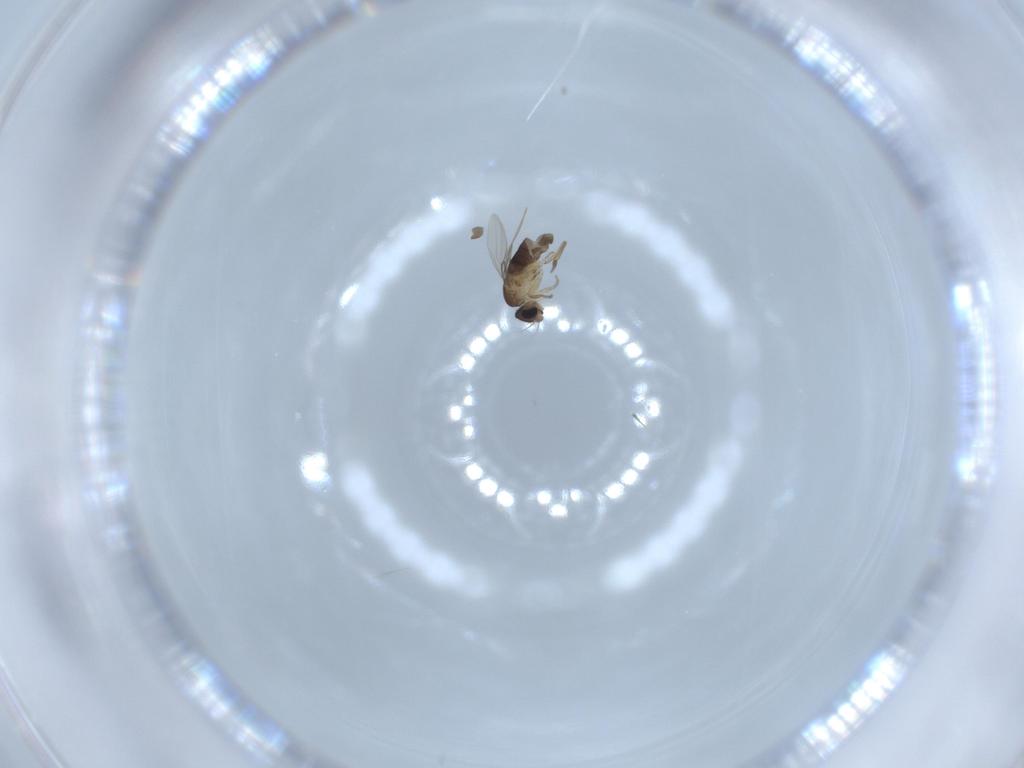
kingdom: Animalia
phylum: Arthropoda
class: Insecta
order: Diptera
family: Phoridae
